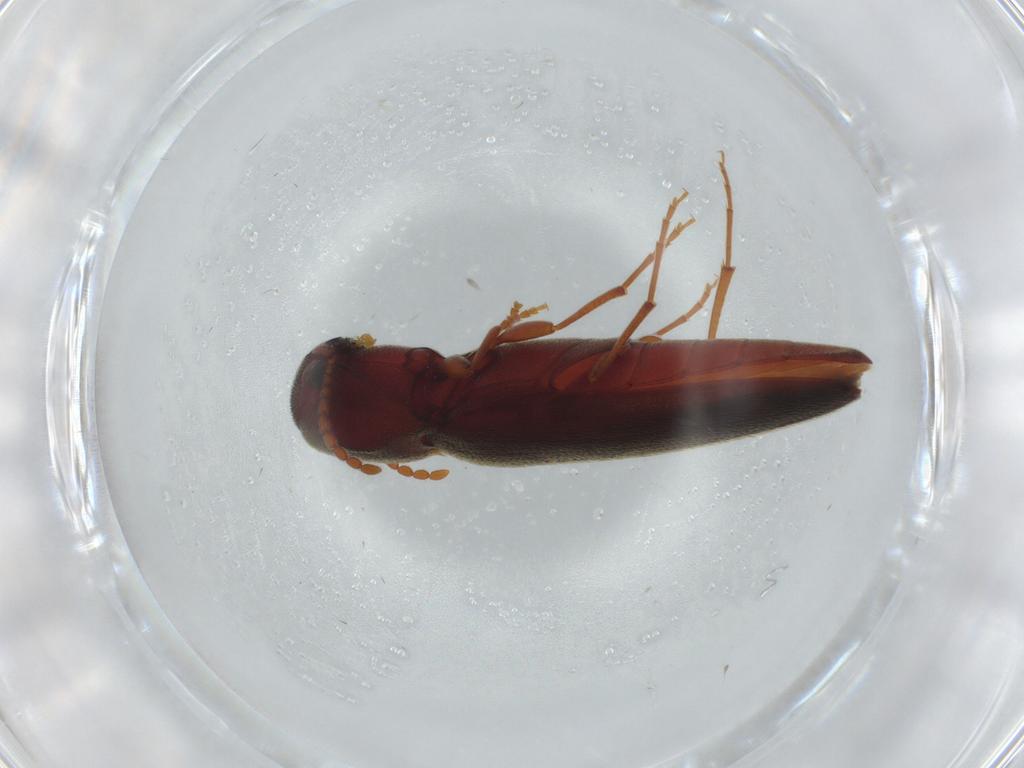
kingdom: Animalia
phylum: Arthropoda
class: Insecta
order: Coleoptera
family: Eucnemidae
